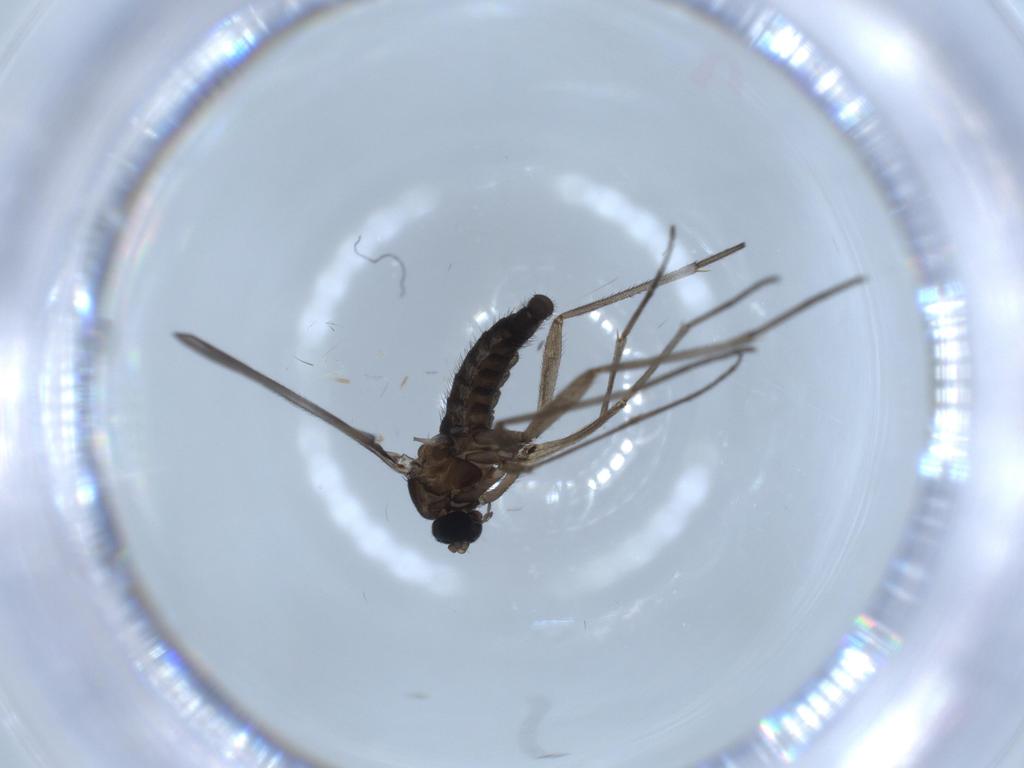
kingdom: Animalia
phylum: Arthropoda
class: Insecta
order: Diptera
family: Sciaridae
